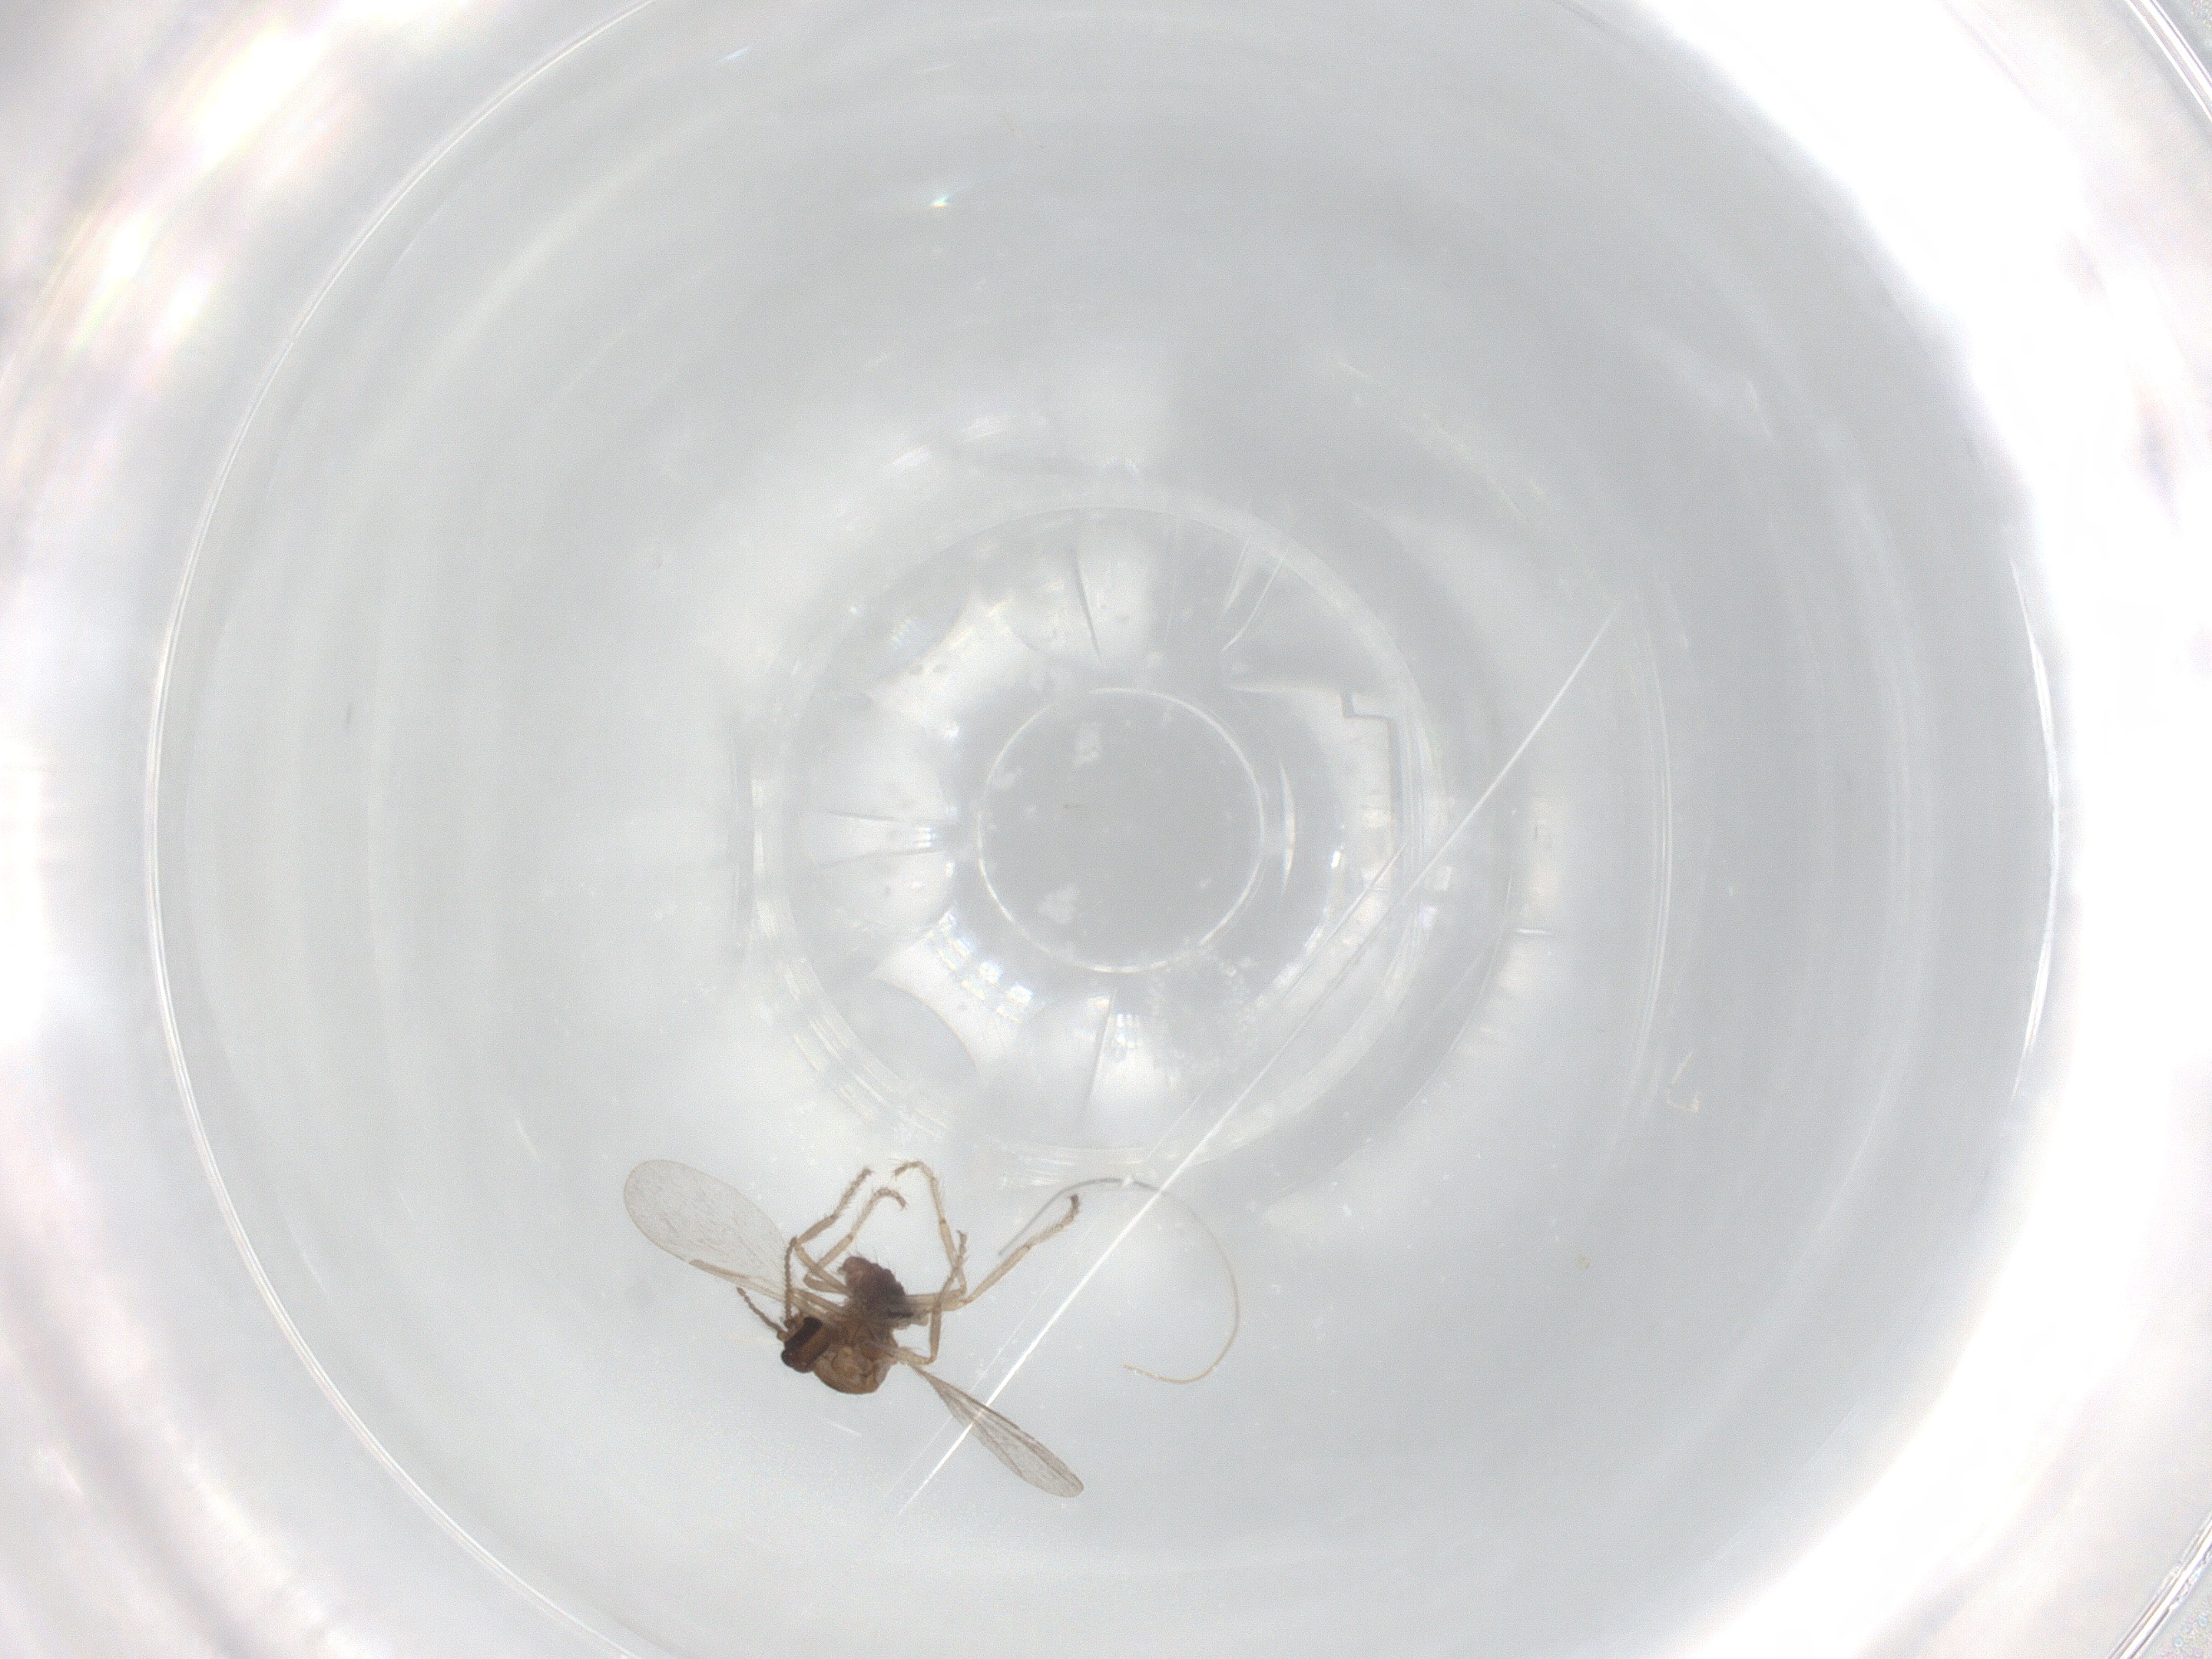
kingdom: Animalia
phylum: Arthropoda
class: Insecta
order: Diptera
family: Ceratopogonidae
